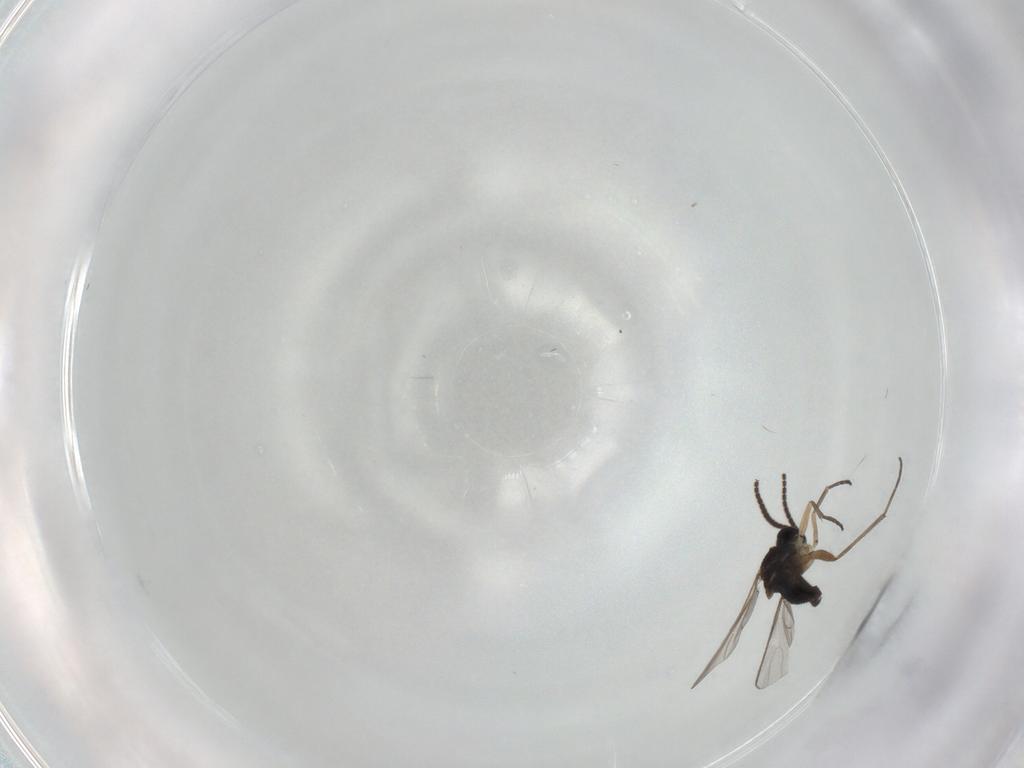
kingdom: Animalia
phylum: Arthropoda
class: Insecta
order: Diptera
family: Sciaridae
